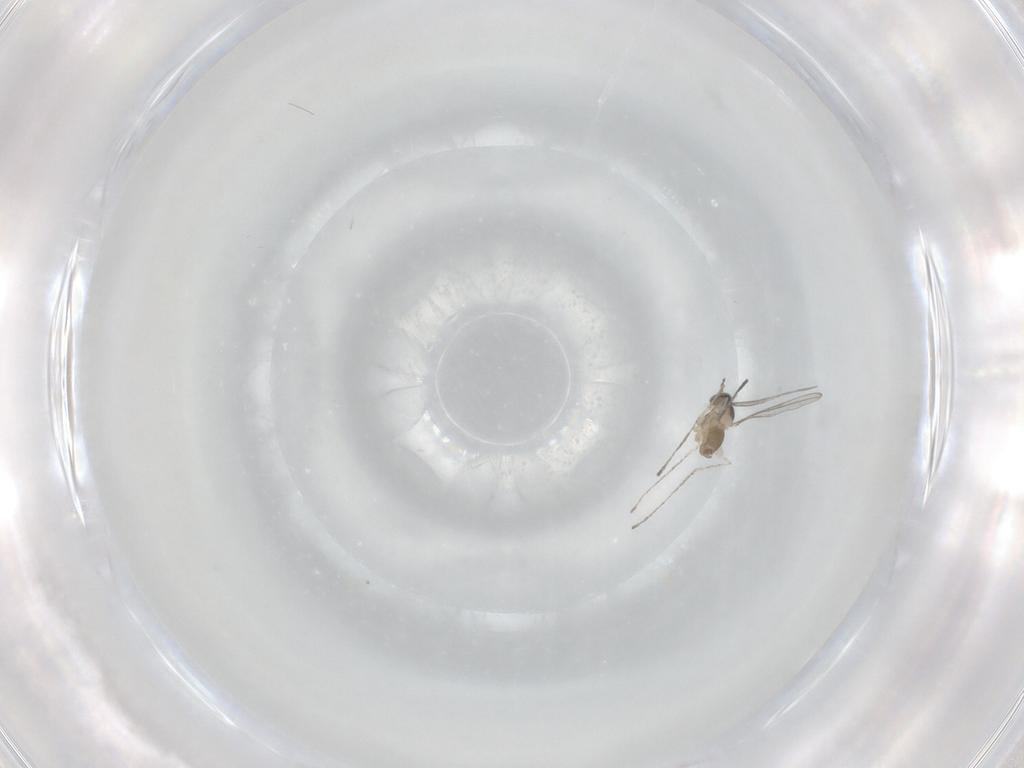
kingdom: Animalia
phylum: Arthropoda
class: Insecta
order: Diptera
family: Cecidomyiidae
